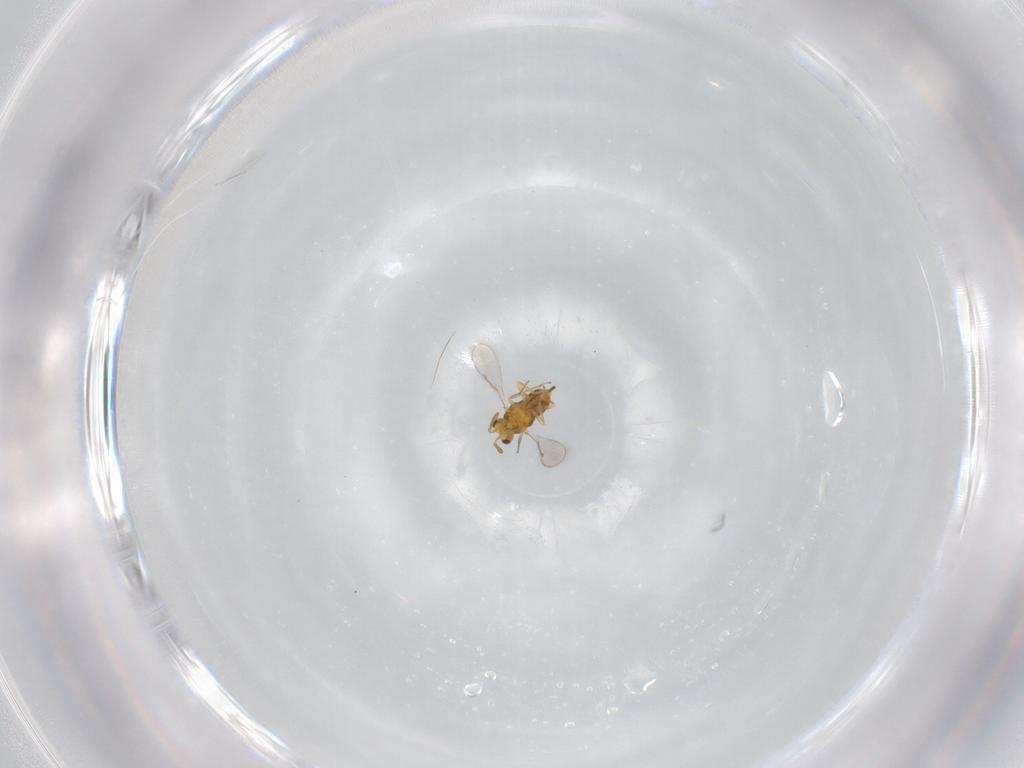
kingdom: Animalia
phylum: Arthropoda
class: Insecta
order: Hymenoptera
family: Aphelinidae
